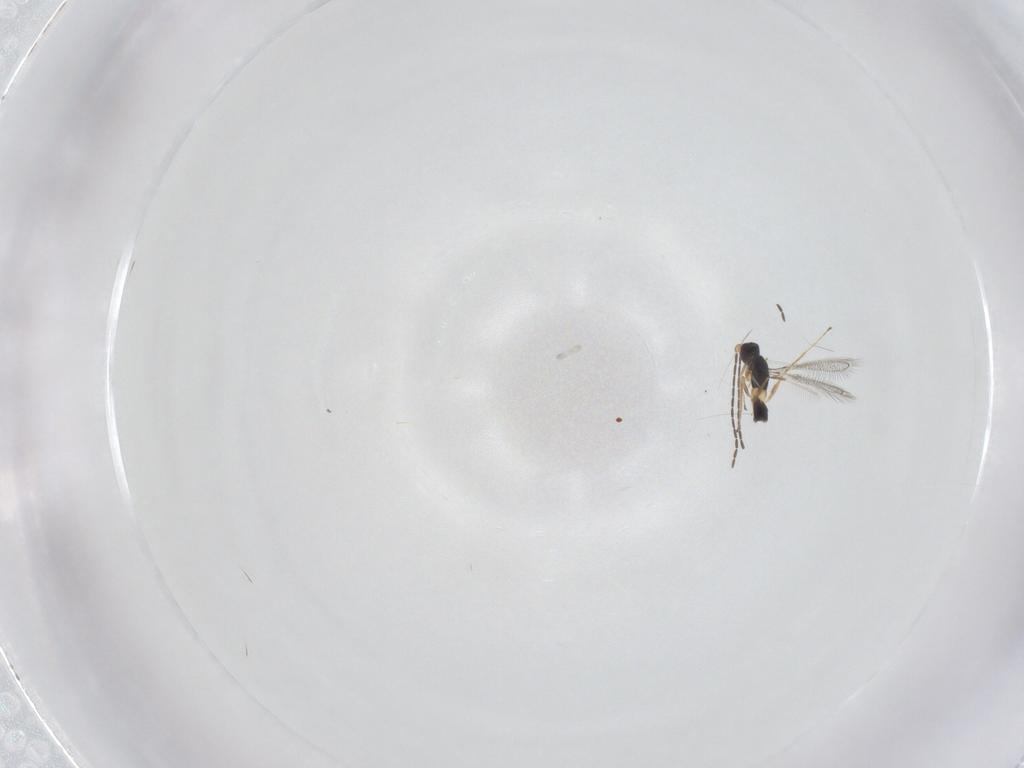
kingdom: Animalia
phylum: Arthropoda
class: Insecta
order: Hymenoptera
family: Mymaridae
